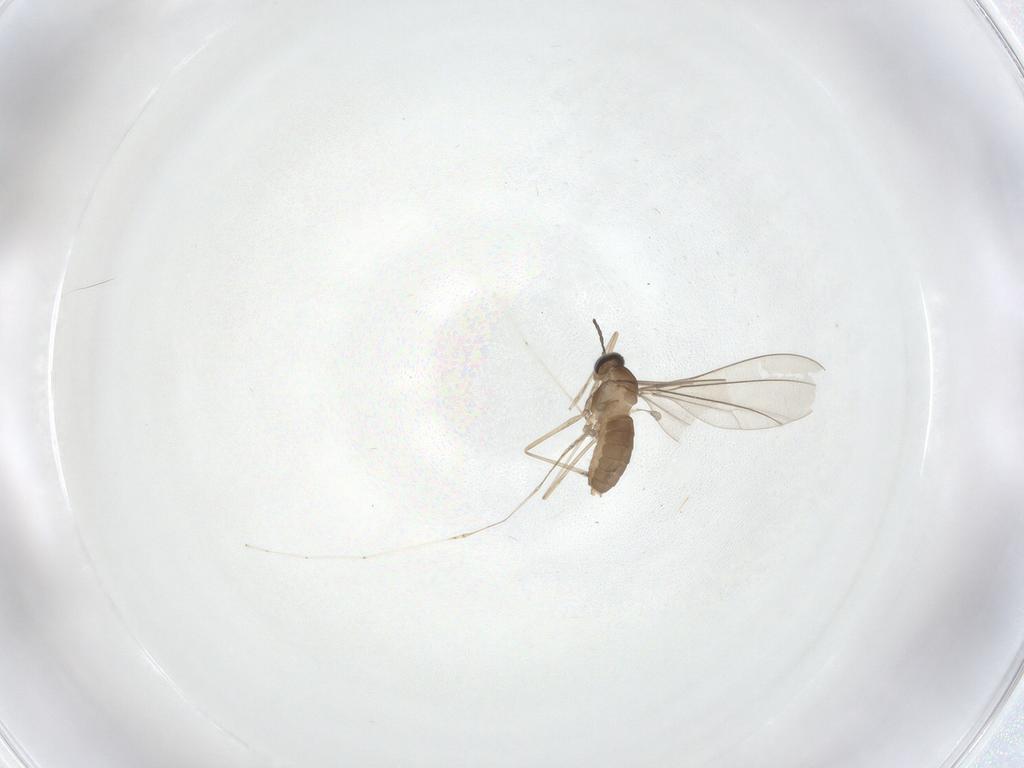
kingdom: Animalia
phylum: Arthropoda
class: Insecta
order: Diptera
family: Cecidomyiidae
